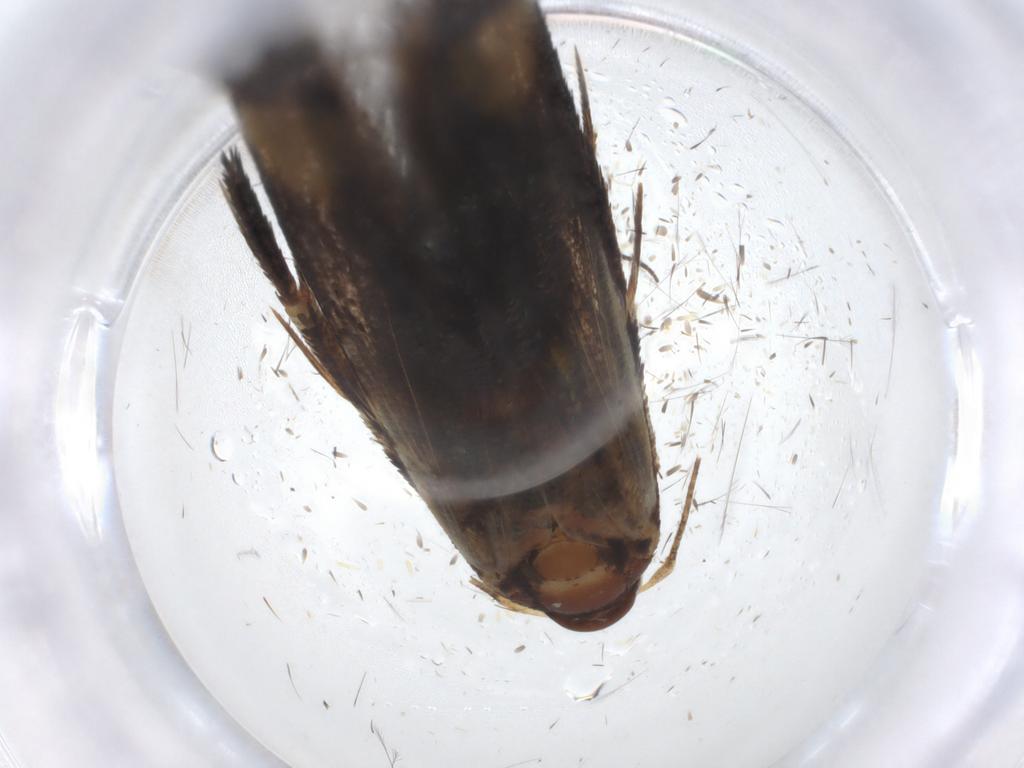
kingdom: Animalia
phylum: Arthropoda
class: Insecta
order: Lepidoptera
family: Gelechiidae
